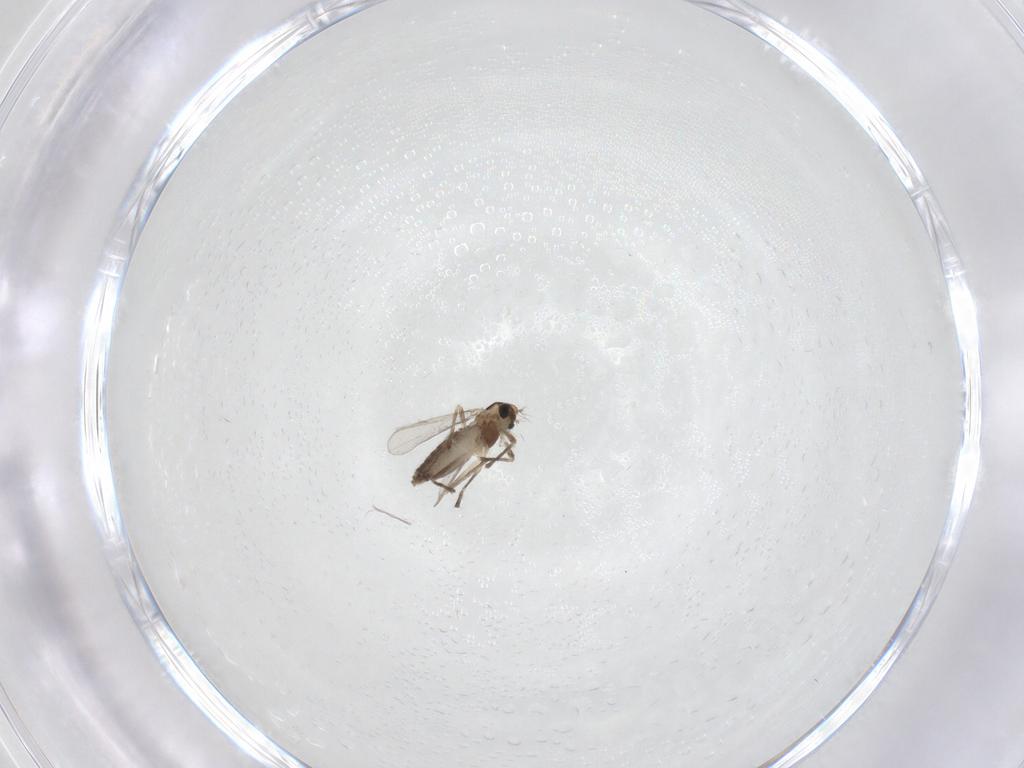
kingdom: Animalia
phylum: Arthropoda
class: Insecta
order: Diptera
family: Chironomidae
